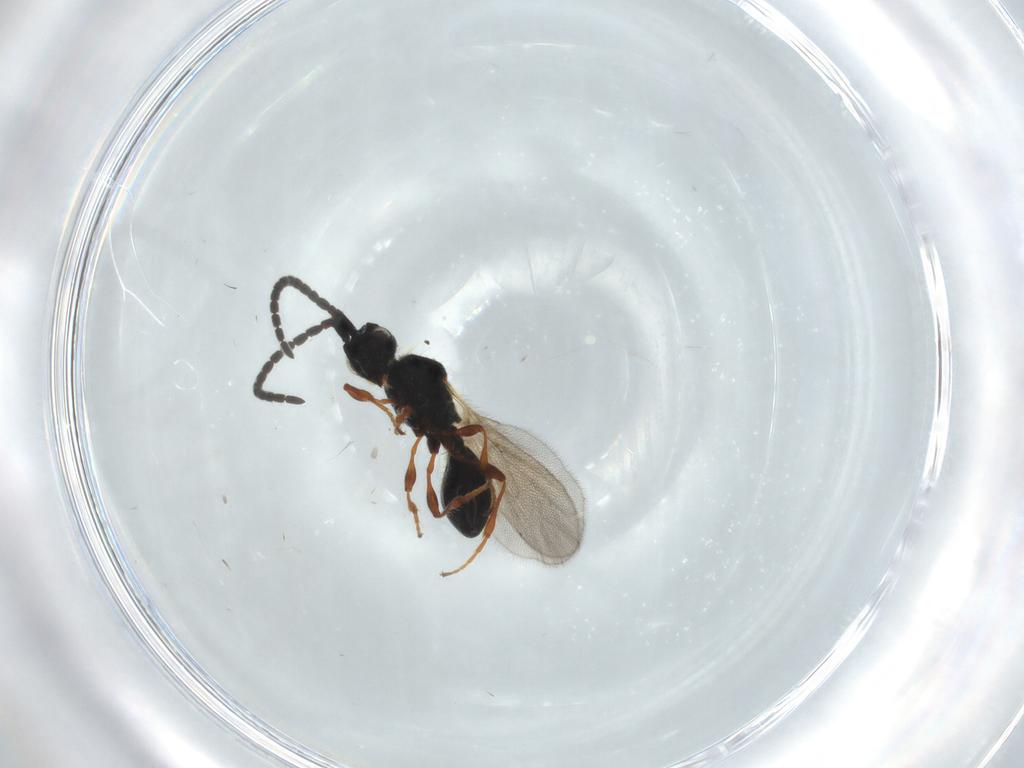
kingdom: Animalia
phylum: Arthropoda
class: Insecta
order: Hymenoptera
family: Diapriidae
